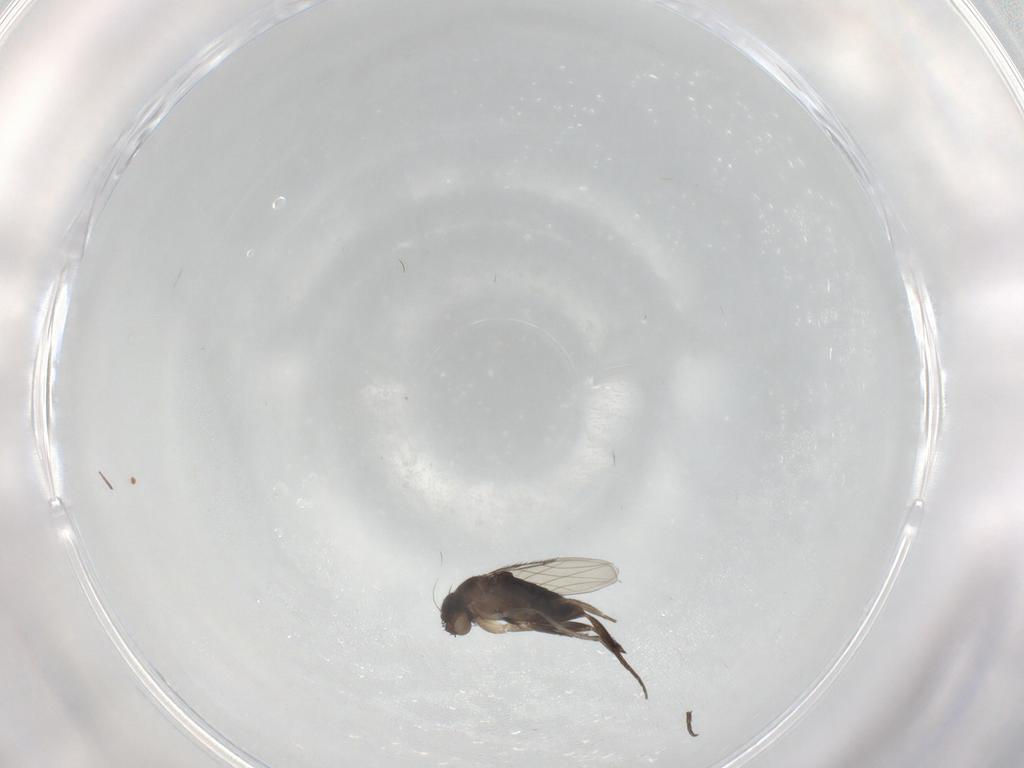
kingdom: Animalia
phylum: Arthropoda
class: Insecta
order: Diptera
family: Phoridae
